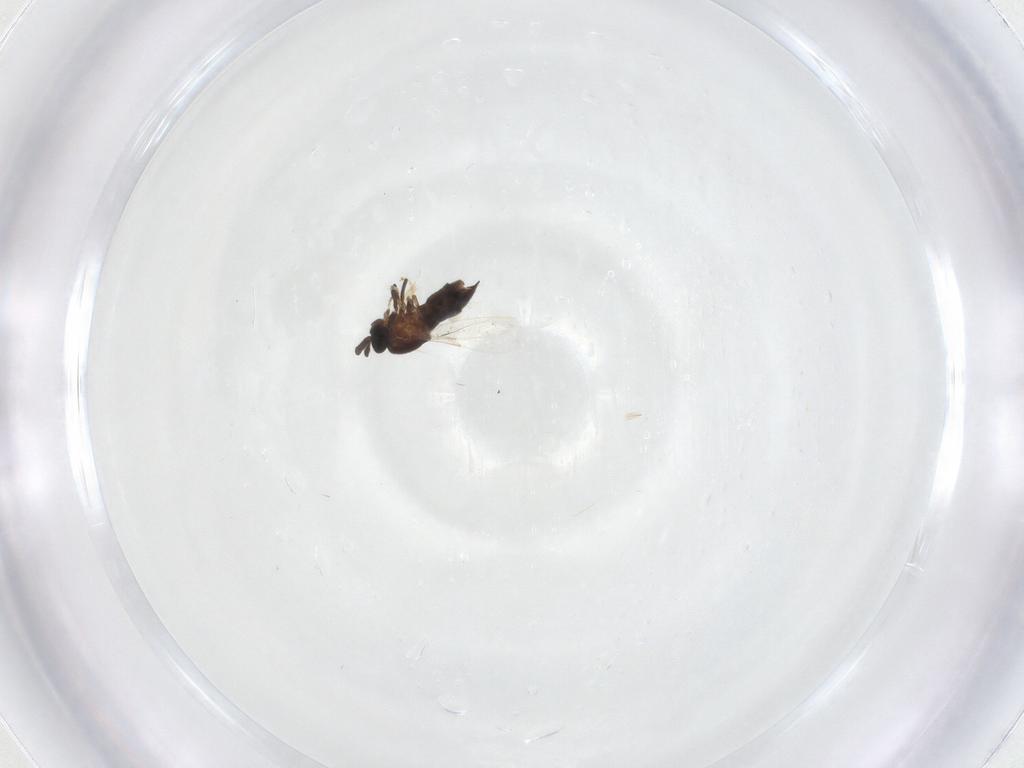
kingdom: Animalia
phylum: Arthropoda
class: Insecta
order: Diptera
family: Scatopsidae
